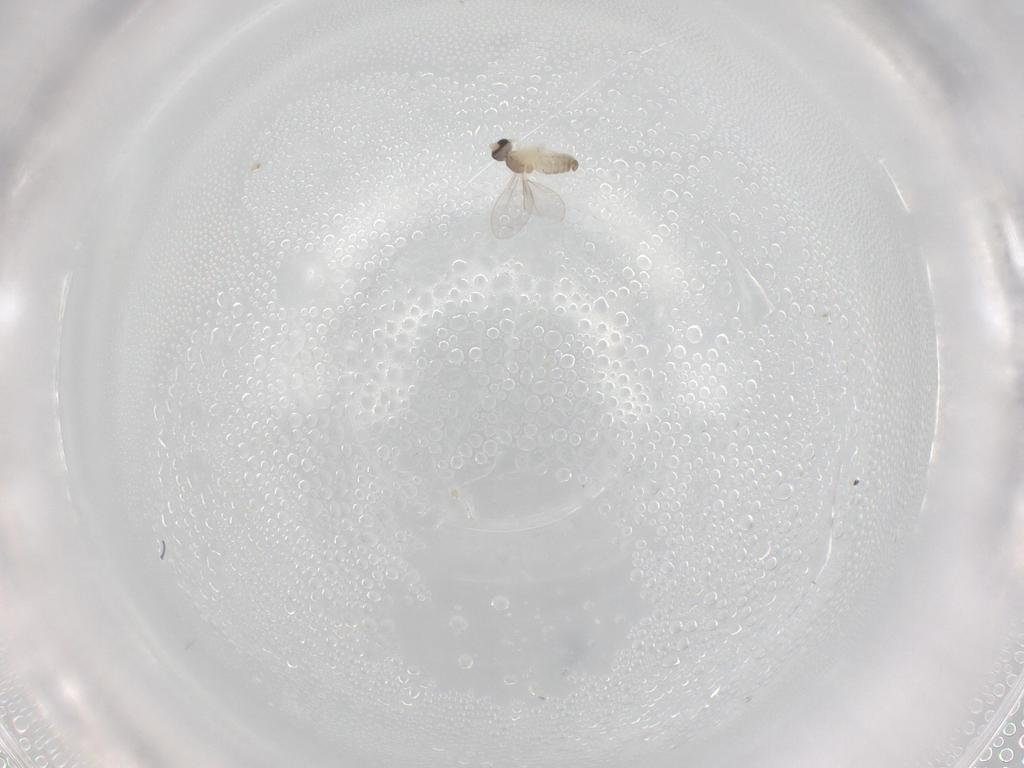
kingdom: Animalia
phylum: Arthropoda
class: Insecta
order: Diptera
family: Cecidomyiidae
